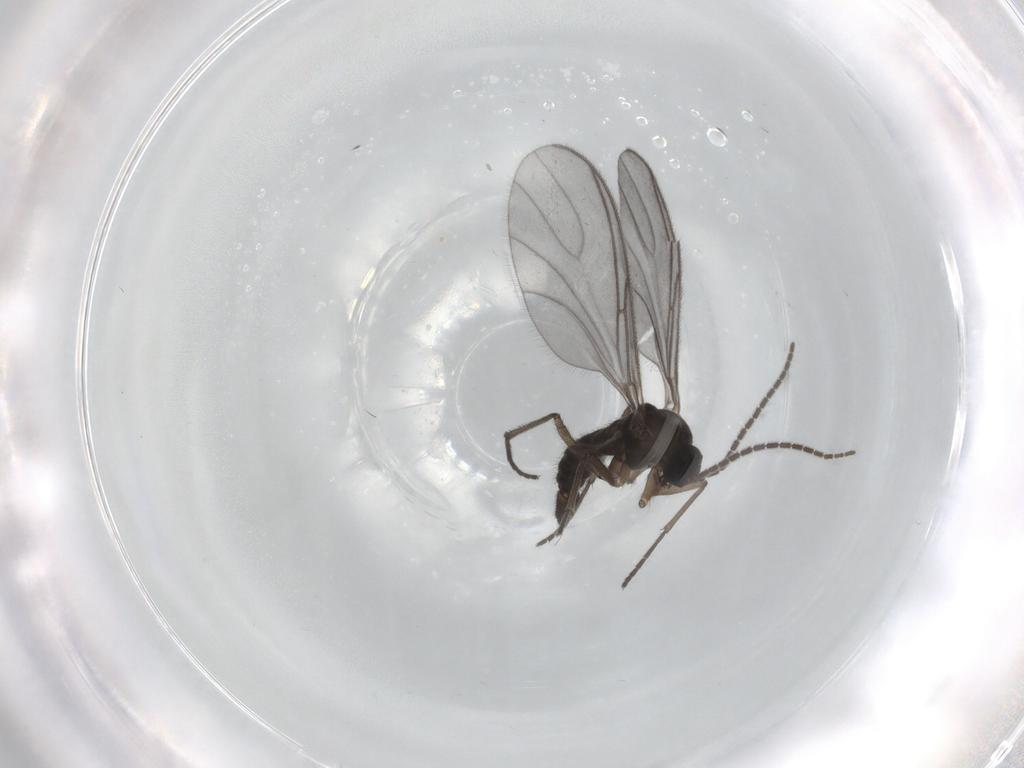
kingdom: Animalia
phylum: Arthropoda
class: Insecta
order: Diptera
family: Sciaridae
